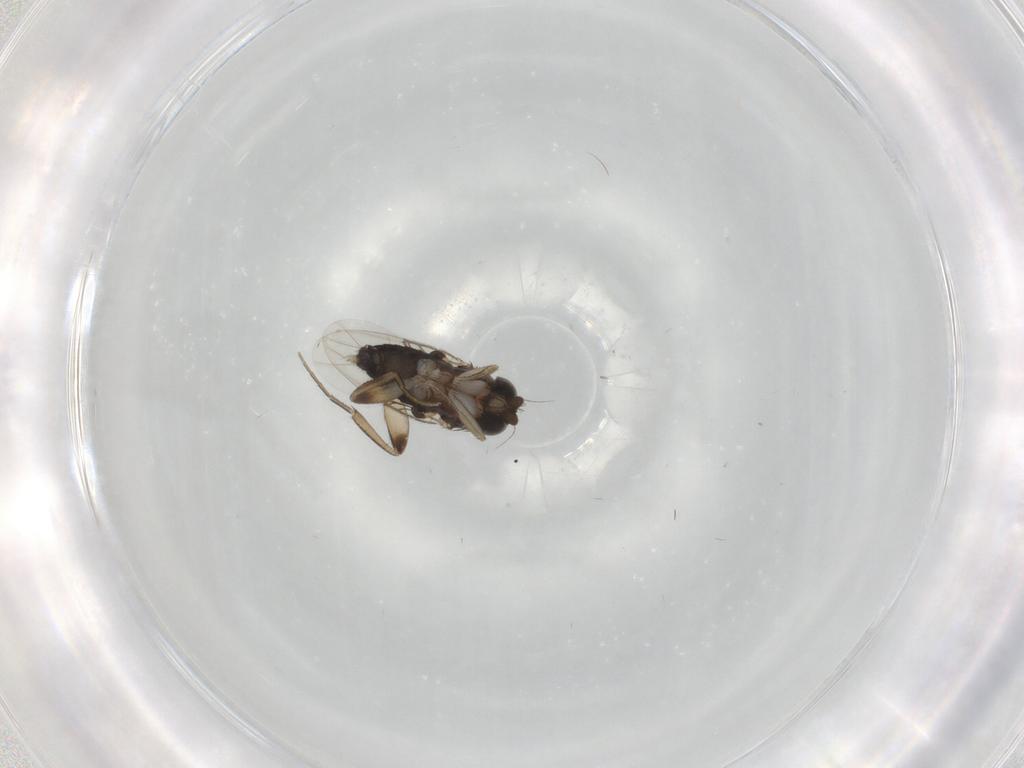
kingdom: Animalia
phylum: Arthropoda
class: Insecta
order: Diptera
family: Phoridae
